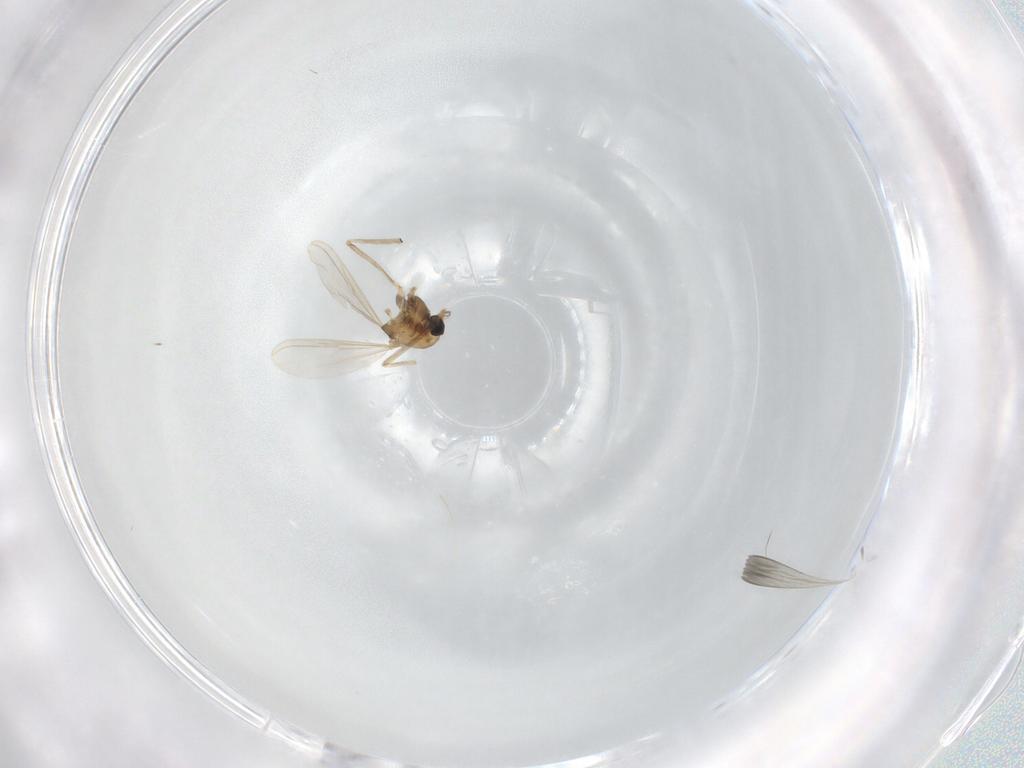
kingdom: Animalia
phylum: Arthropoda
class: Insecta
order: Diptera
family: Chironomidae
